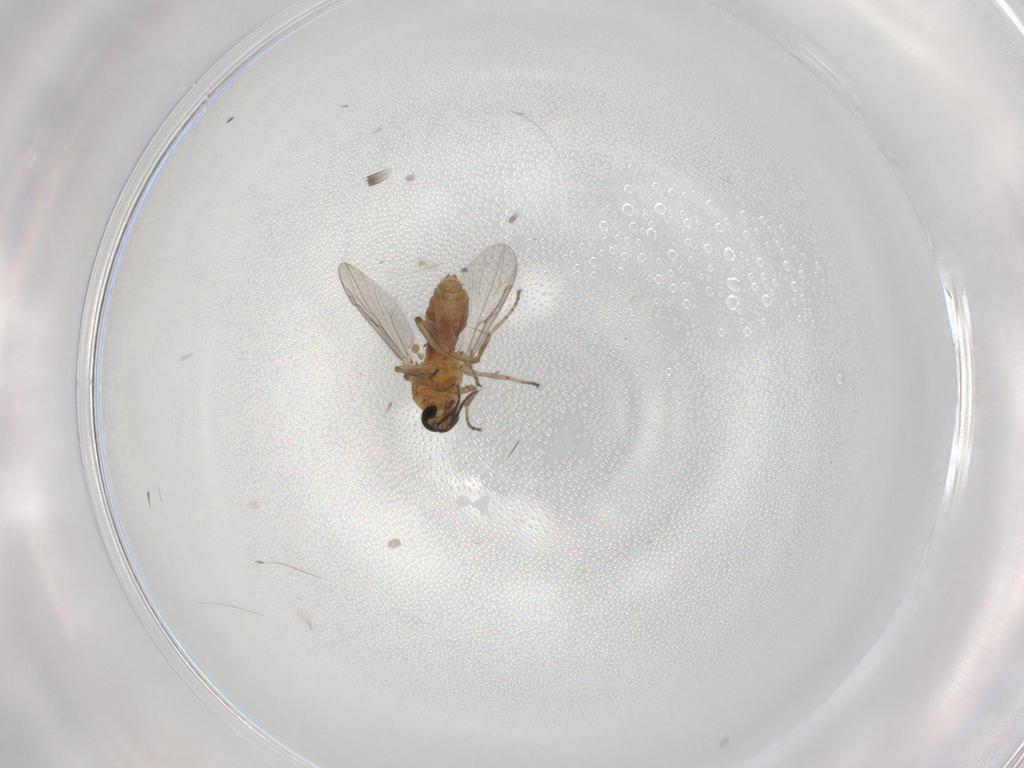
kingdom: Animalia
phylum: Arthropoda
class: Insecta
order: Diptera
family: Ceratopogonidae
